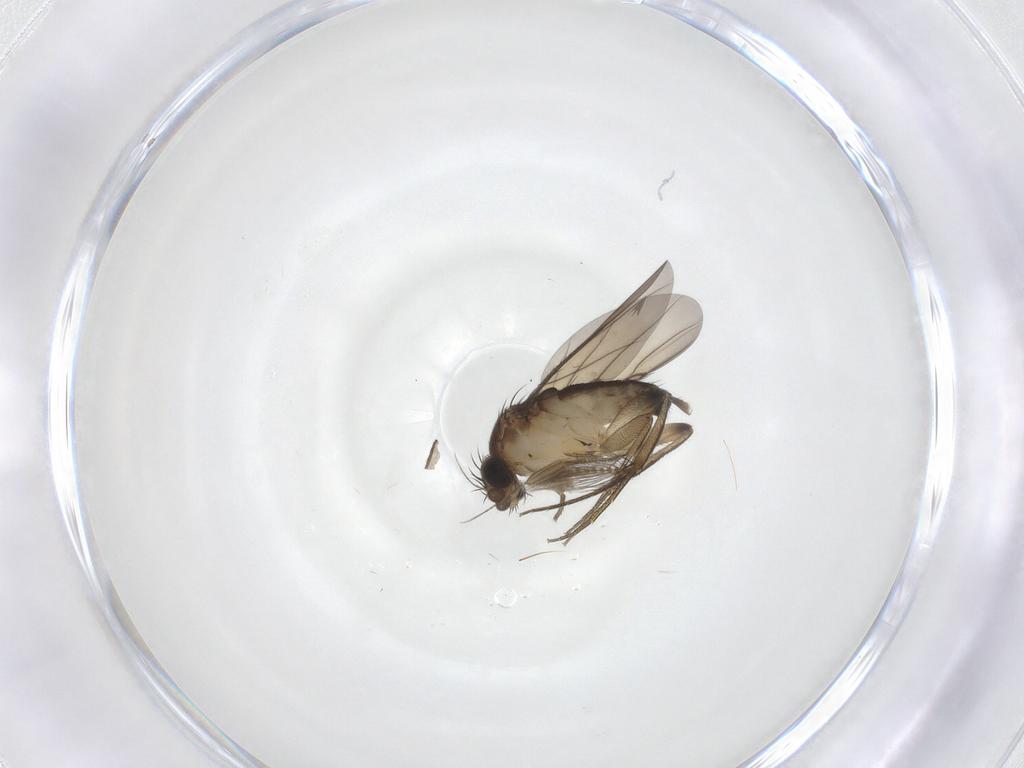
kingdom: Animalia
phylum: Arthropoda
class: Insecta
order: Diptera
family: Phoridae
